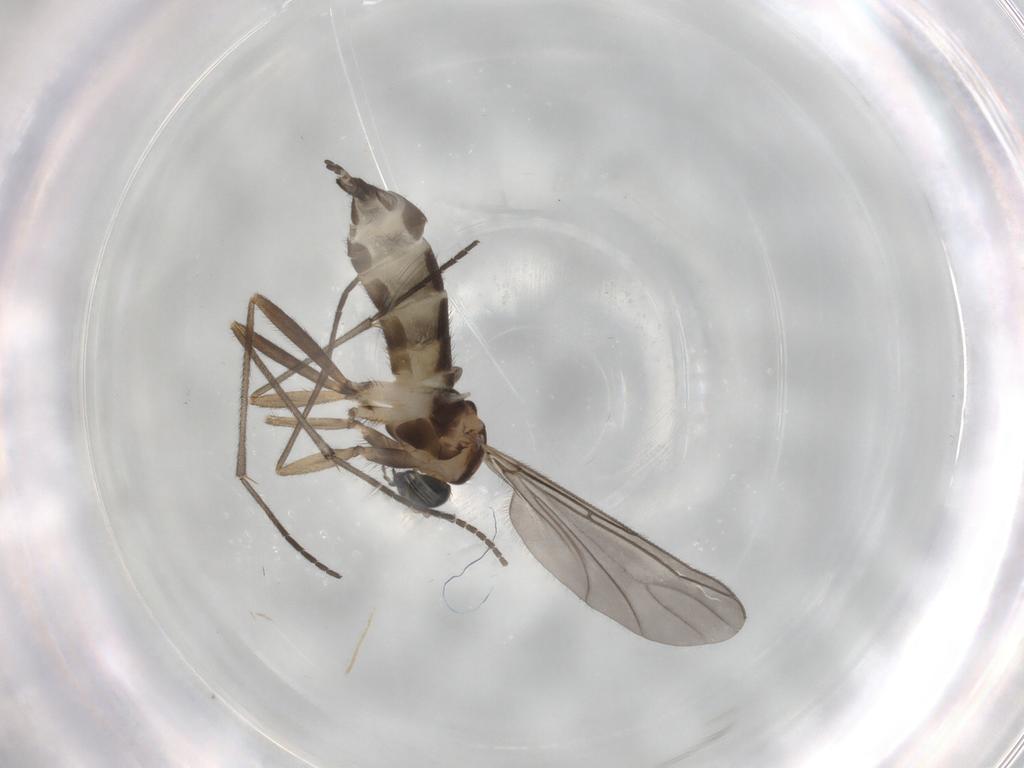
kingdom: Animalia
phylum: Arthropoda
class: Insecta
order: Diptera
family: Sciaridae
